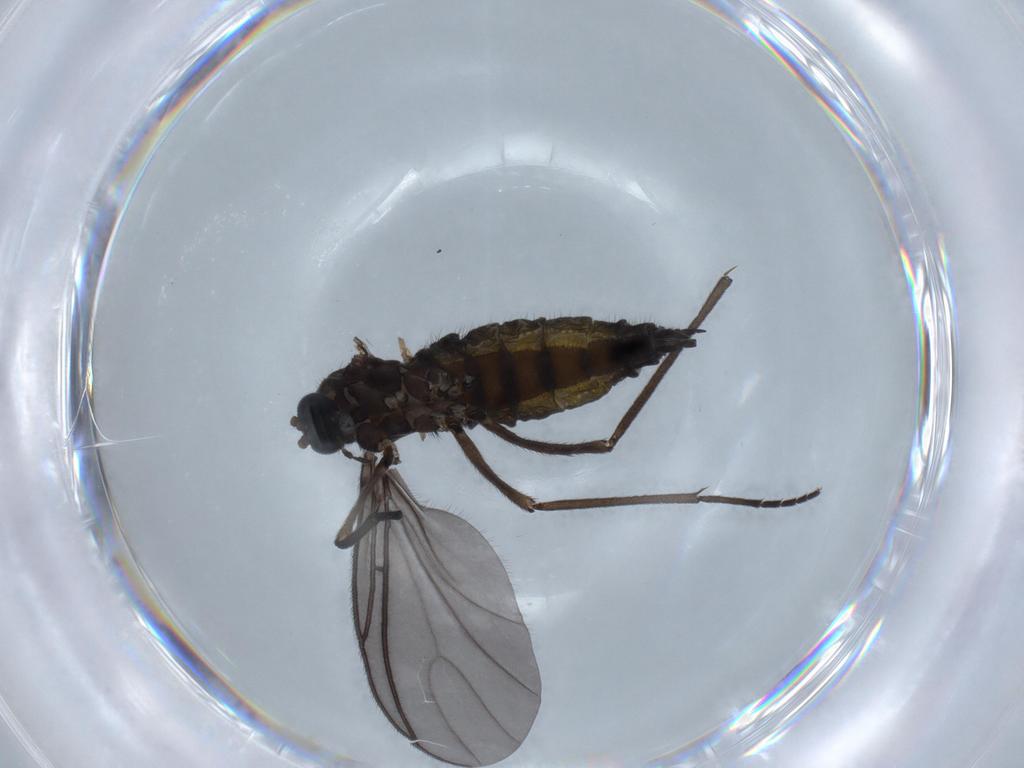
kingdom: Animalia
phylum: Arthropoda
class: Insecta
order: Diptera
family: Sciaridae
